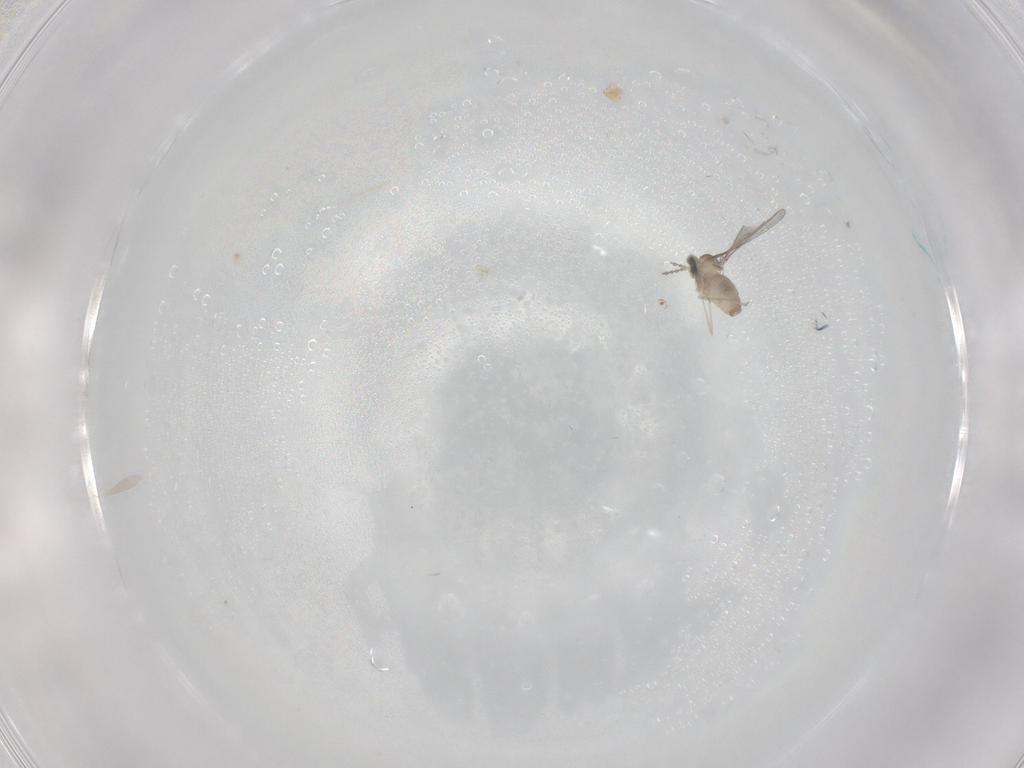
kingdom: Animalia
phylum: Arthropoda
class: Insecta
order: Diptera
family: Cecidomyiidae
